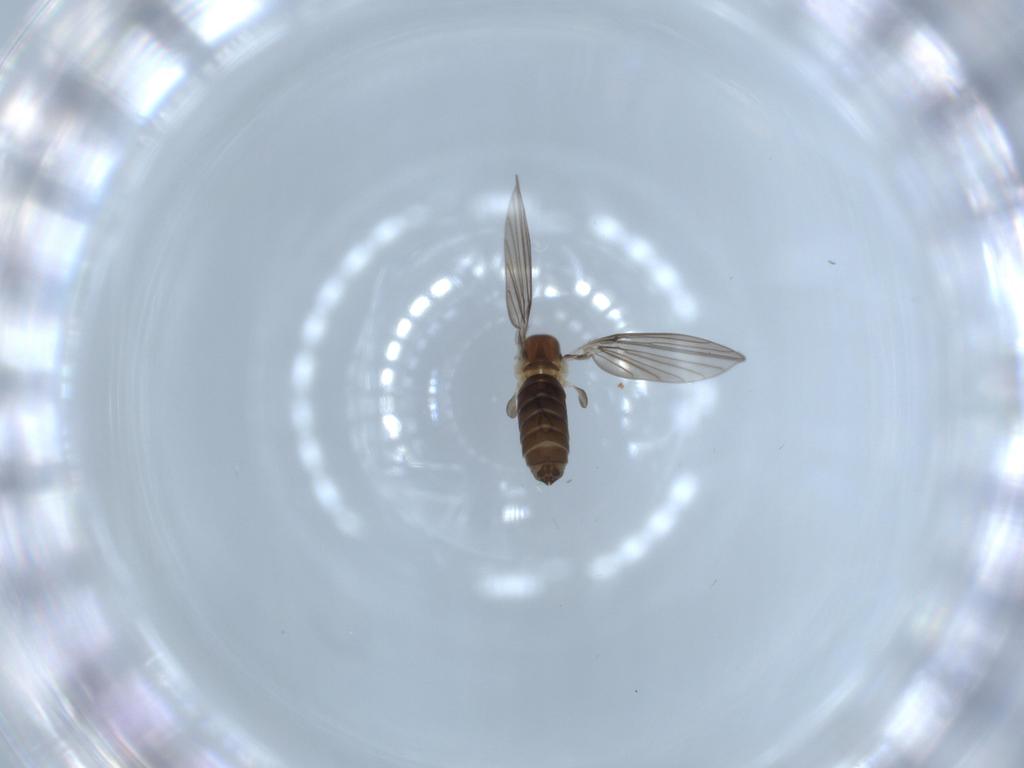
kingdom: Animalia
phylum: Arthropoda
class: Insecta
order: Diptera
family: Psychodidae
